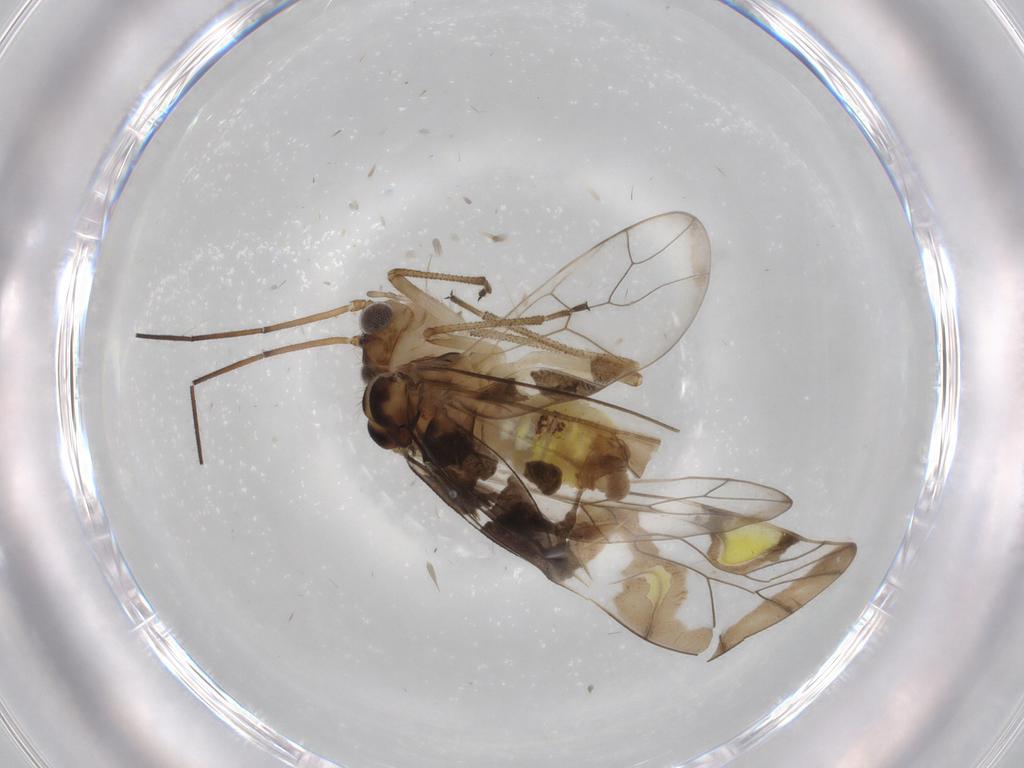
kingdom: Animalia
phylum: Arthropoda
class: Insecta
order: Psocodea
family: Amphipsocidae
